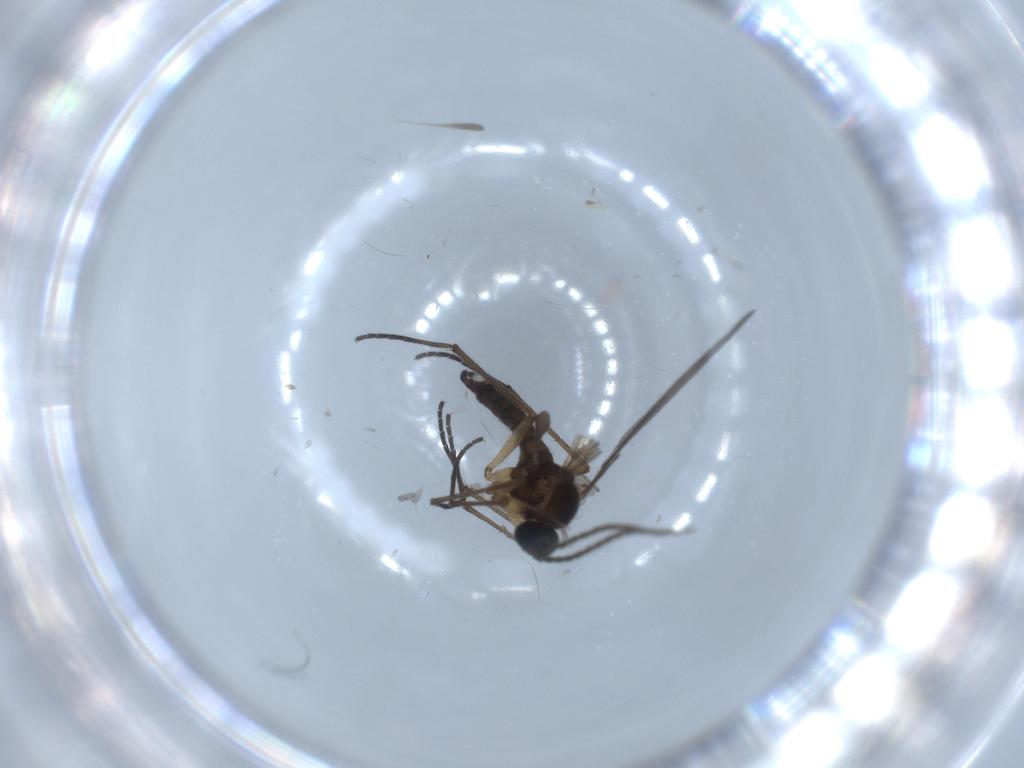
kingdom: Animalia
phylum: Arthropoda
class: Insecta
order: Diptera
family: Sciaridae
